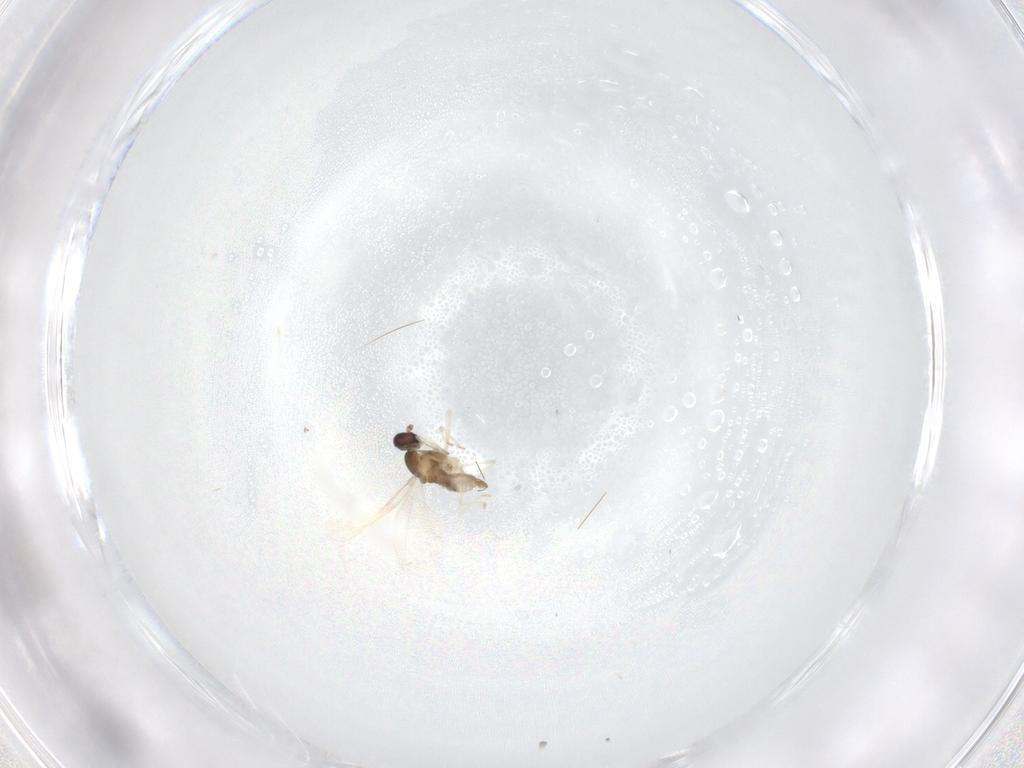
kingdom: Animalia
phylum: Arthropoda
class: Insecta
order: Diptera
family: Cecidomyiidae
